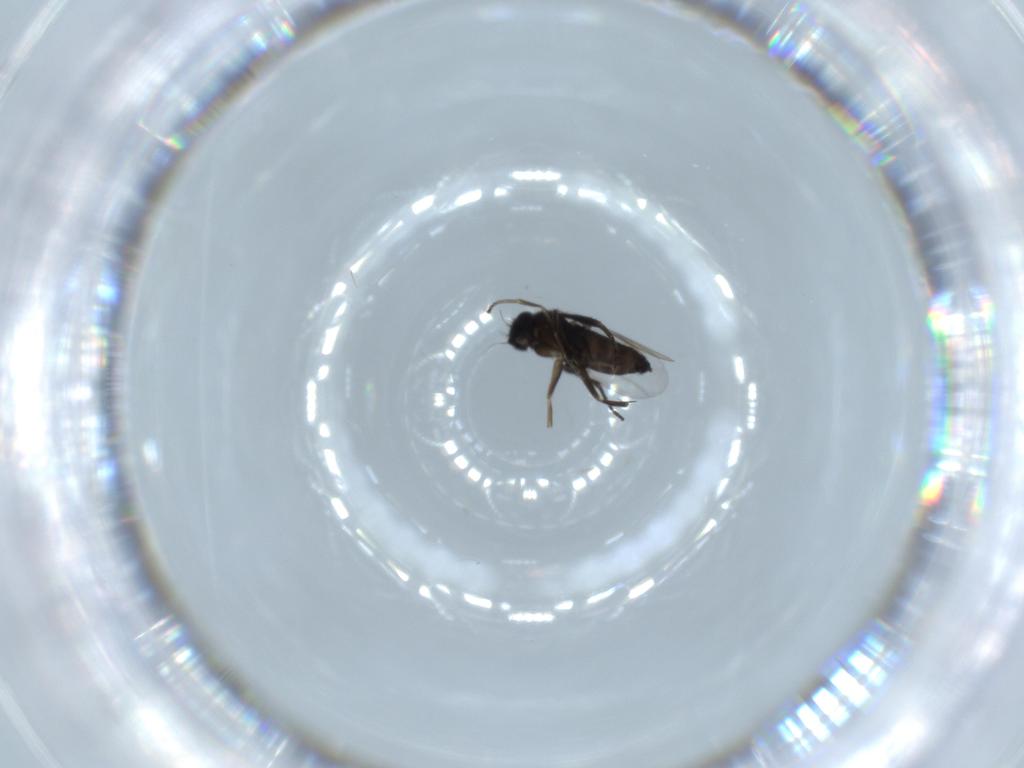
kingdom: Animalia
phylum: Arthropoda
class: Insecta
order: Diptera
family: Phoridae
